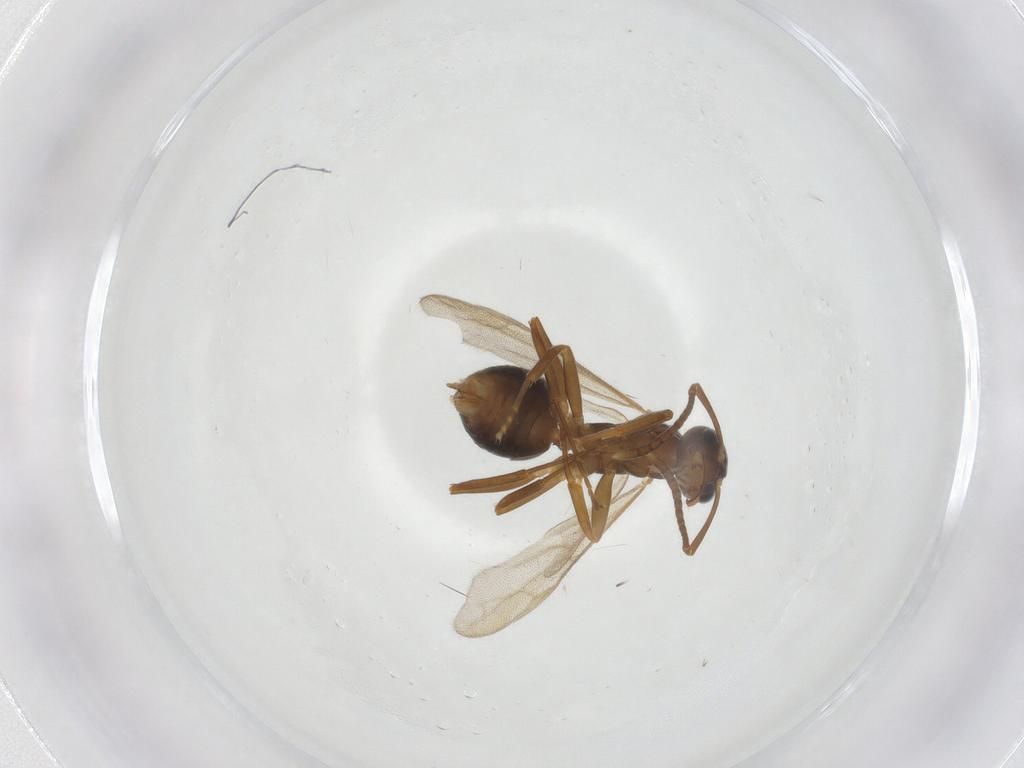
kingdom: Animalia
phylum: Arthropoda
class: Insecta
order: Hymenoptera
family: Formicidae
